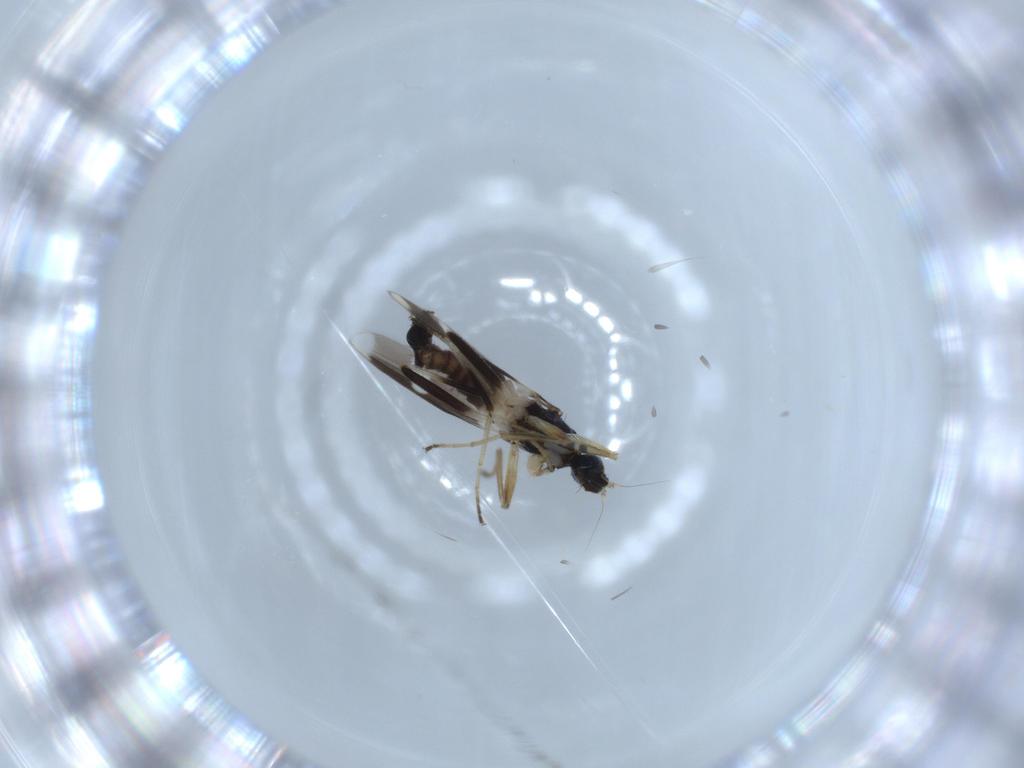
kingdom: Animalia
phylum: Arthropoda
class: Insecta
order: Diptera
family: Hybotidae
